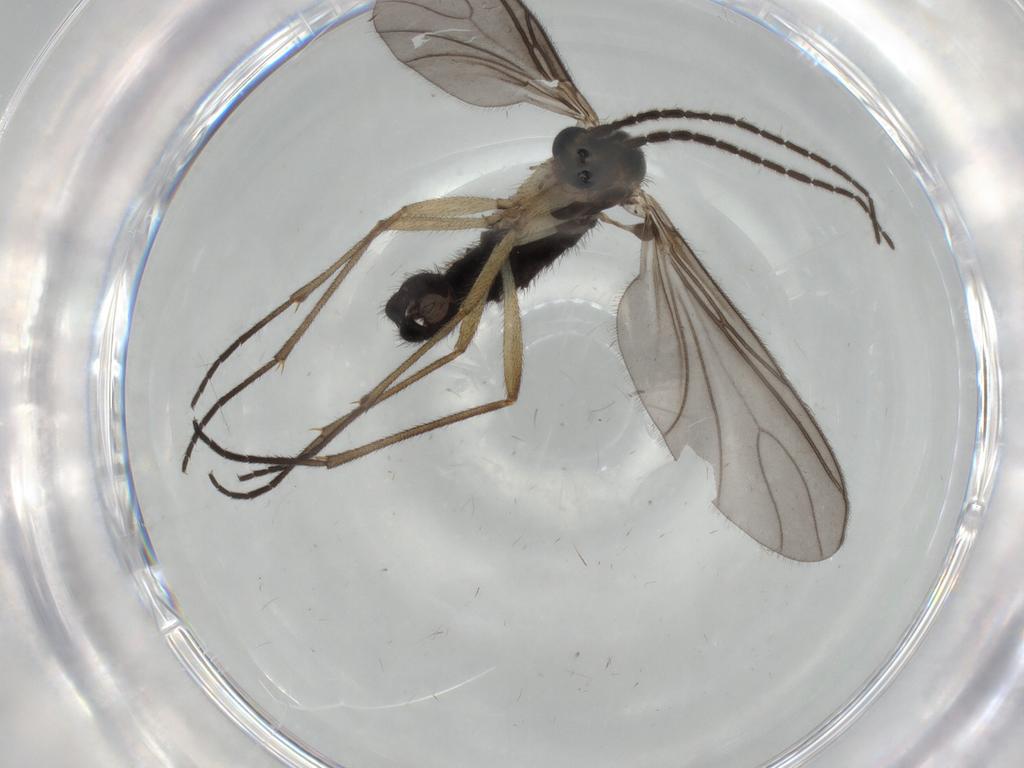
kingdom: Animalia
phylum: Arthropoda
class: Insecta
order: Diptera
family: Sciaridae
